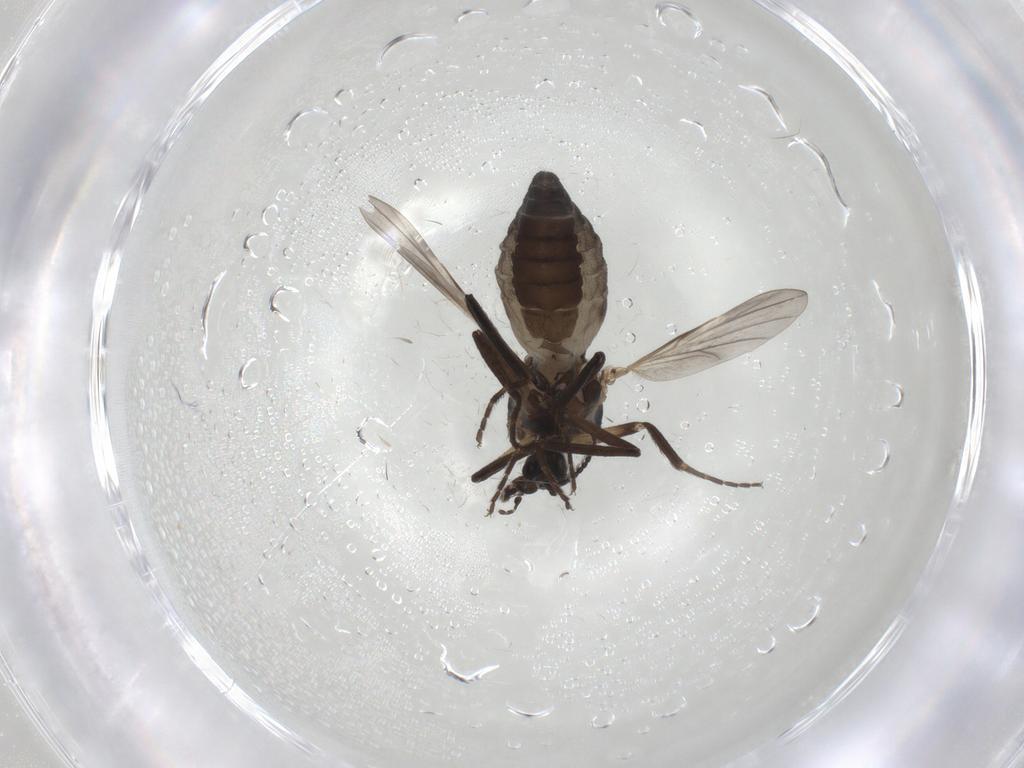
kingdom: Animalia
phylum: Arthropoda
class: Insecta
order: Diptera
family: Ceratopogonidae
